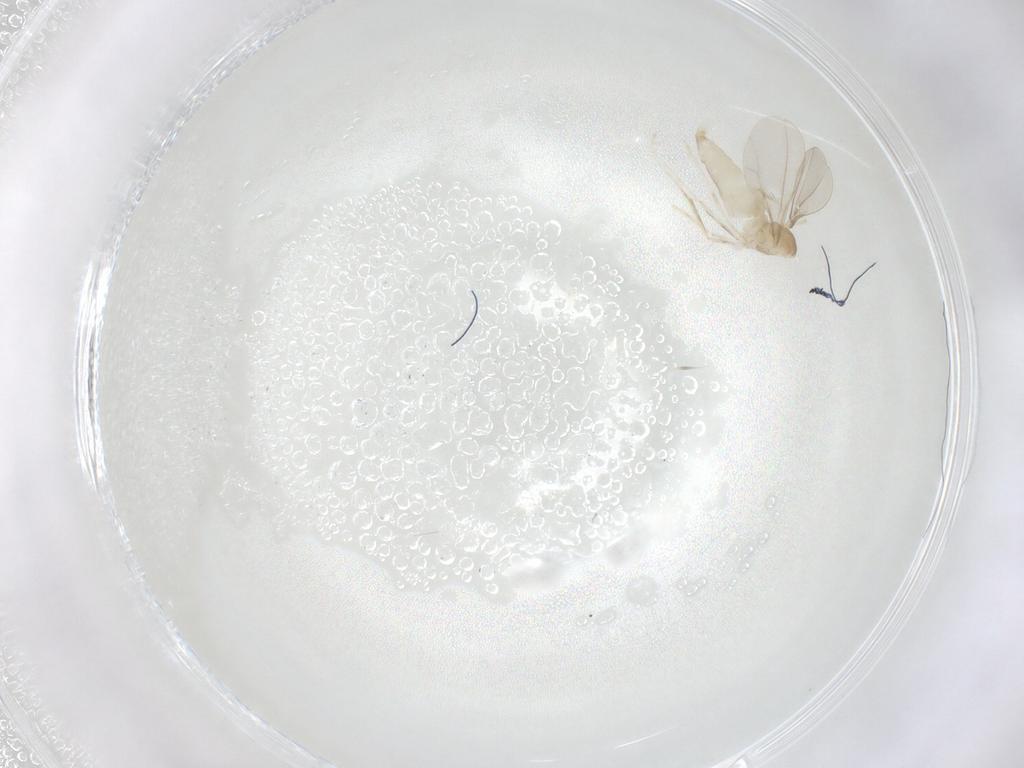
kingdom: Animalia
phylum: Arthropoda
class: Insecta
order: Diptera
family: Cecidomyiidae
